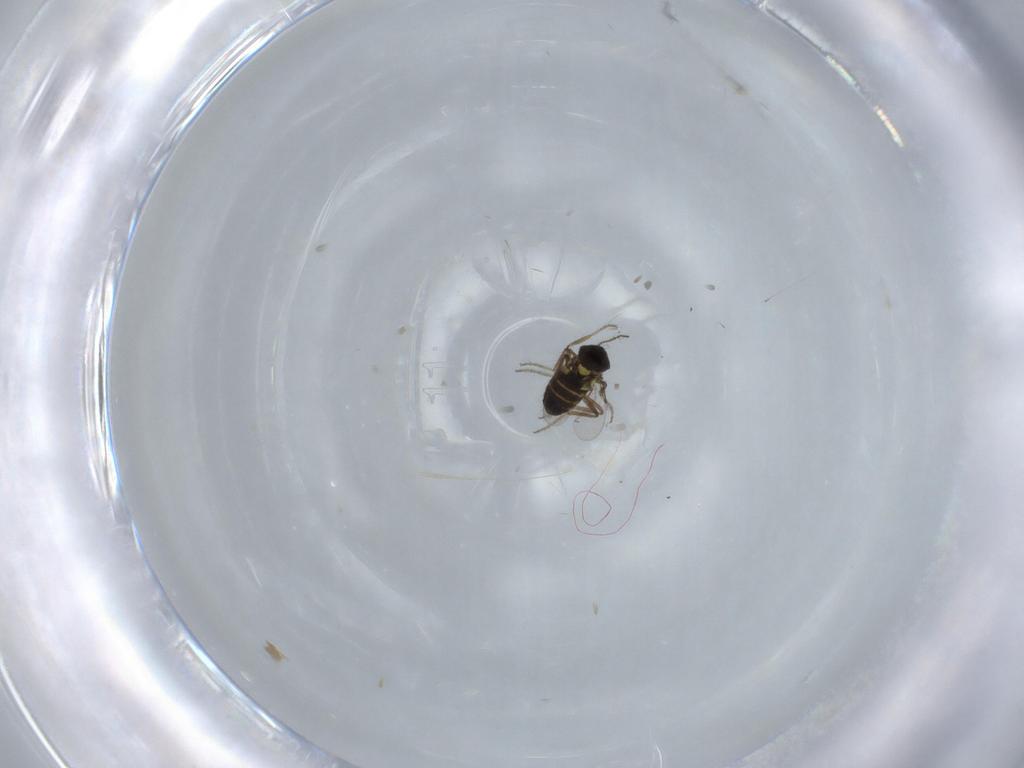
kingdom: Animalia
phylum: Arthropoda
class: Insecta
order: Diptera
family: Ceratopogonidae
